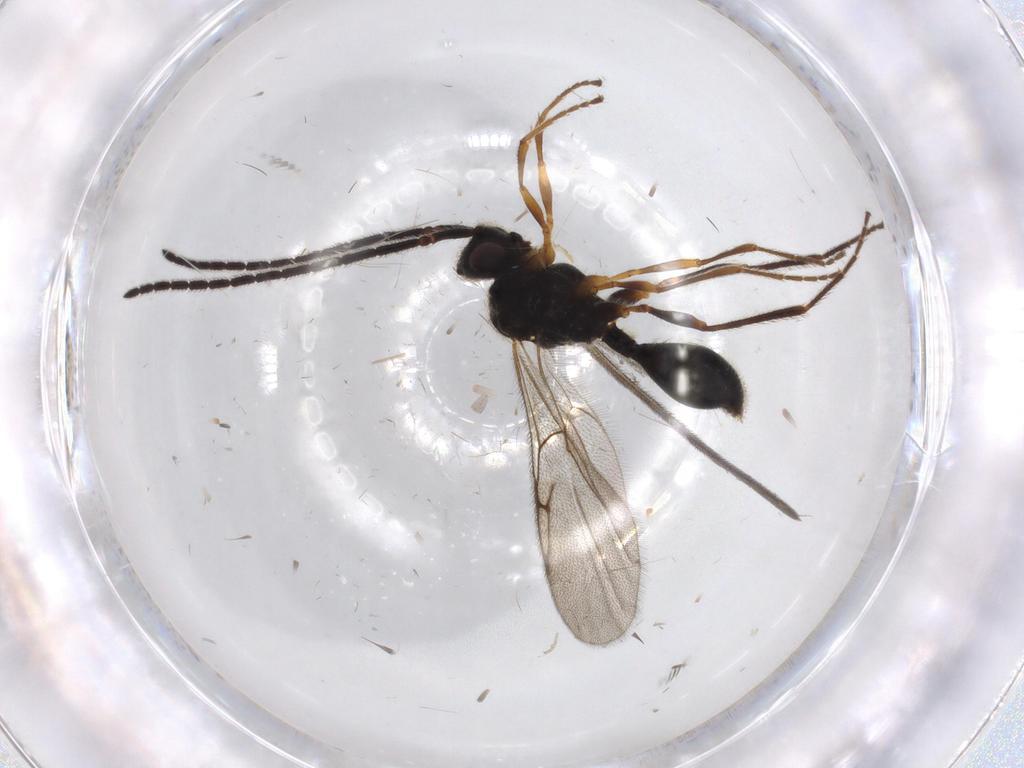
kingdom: Animalia
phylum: Arthropoda
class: Insecta
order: Hymenoptera
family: Diapriidae
